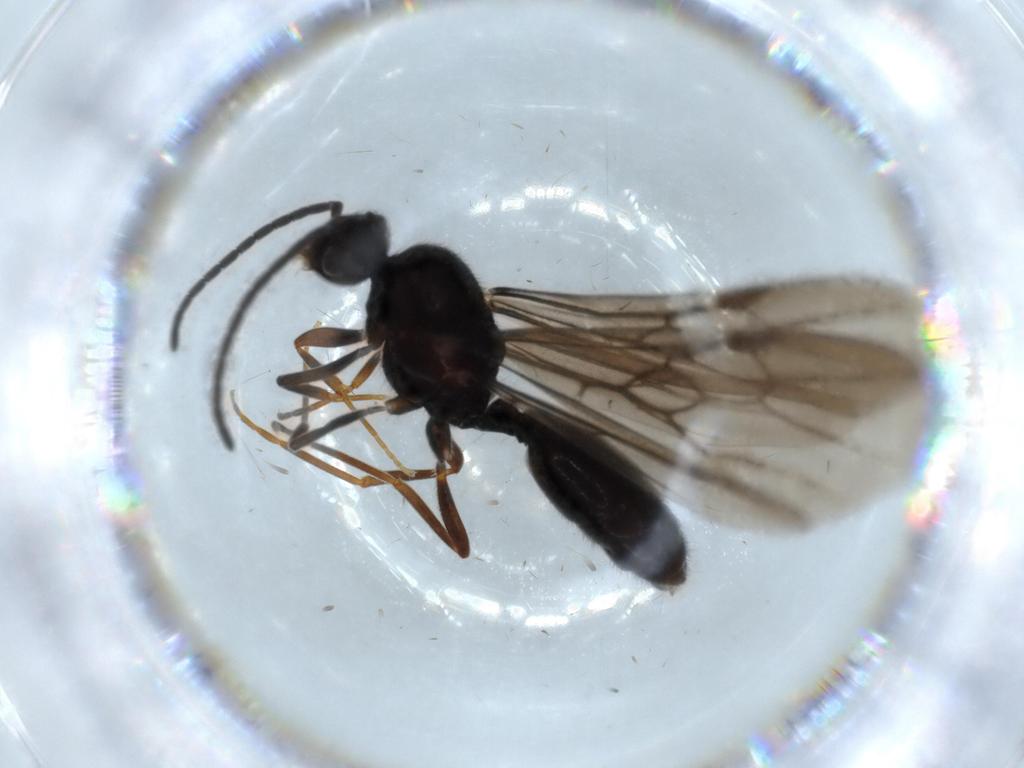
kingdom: Animalia
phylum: Arthropoda
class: Insecta
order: Hymenoptera
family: Formicidae
